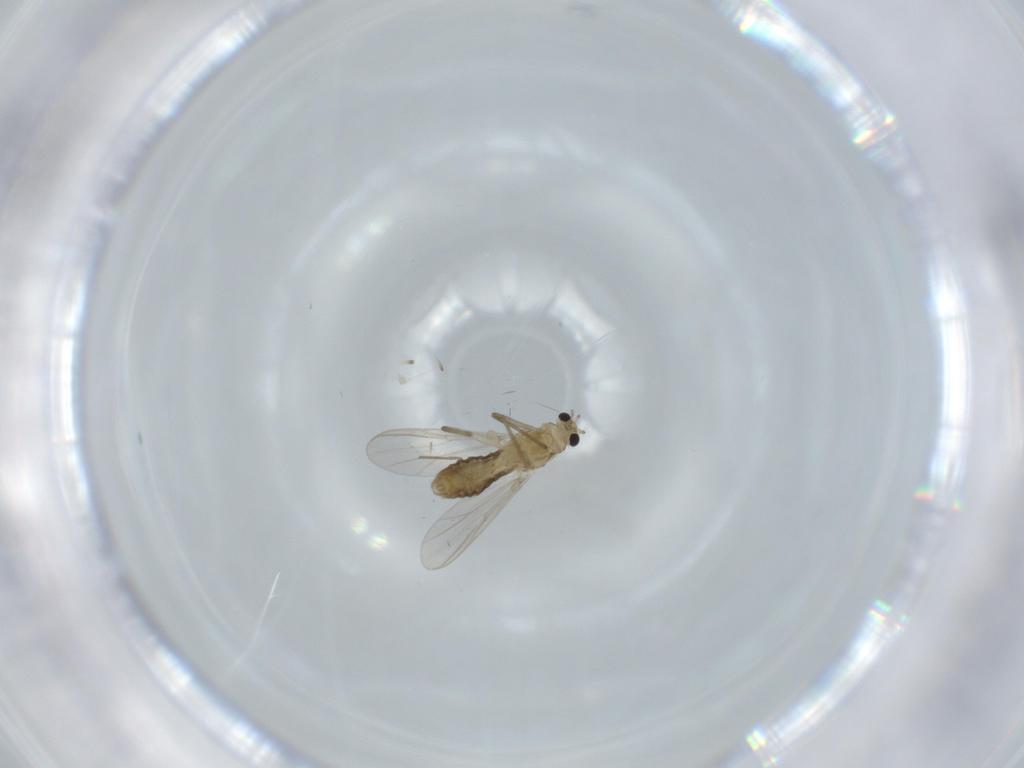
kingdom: Animalia
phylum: Arthropoda
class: Insecta
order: Diptera
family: Chironomidae
